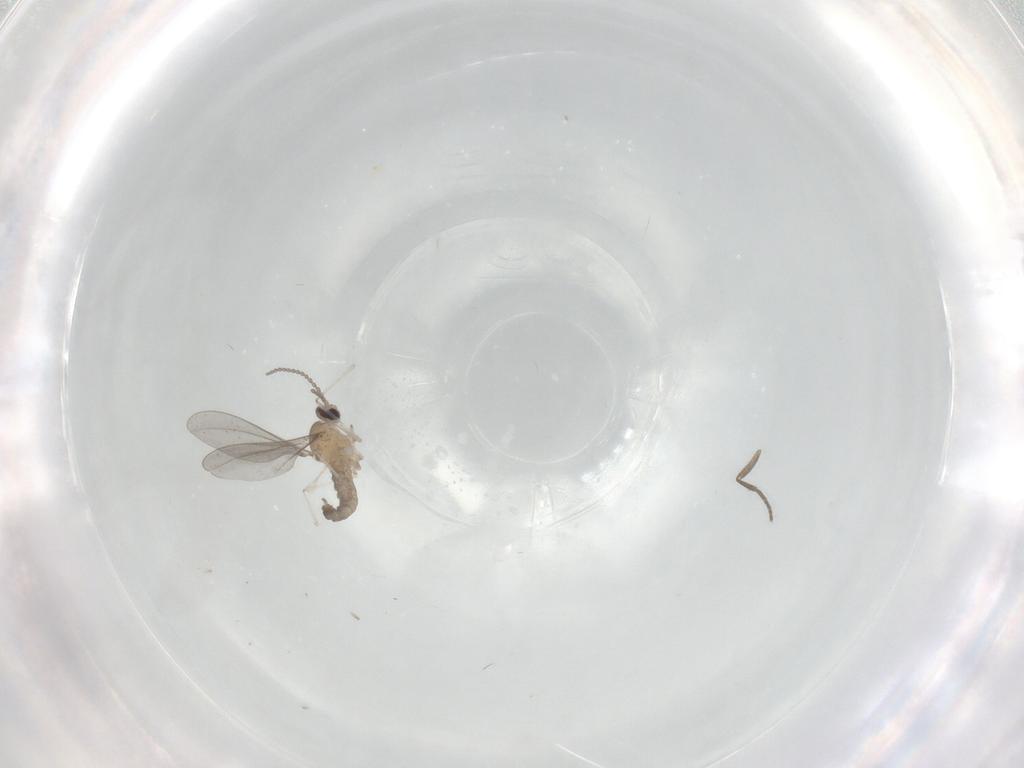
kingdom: Animalia
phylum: Arthropoda
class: Insecta
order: Diptera
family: Cecidomyiidae
